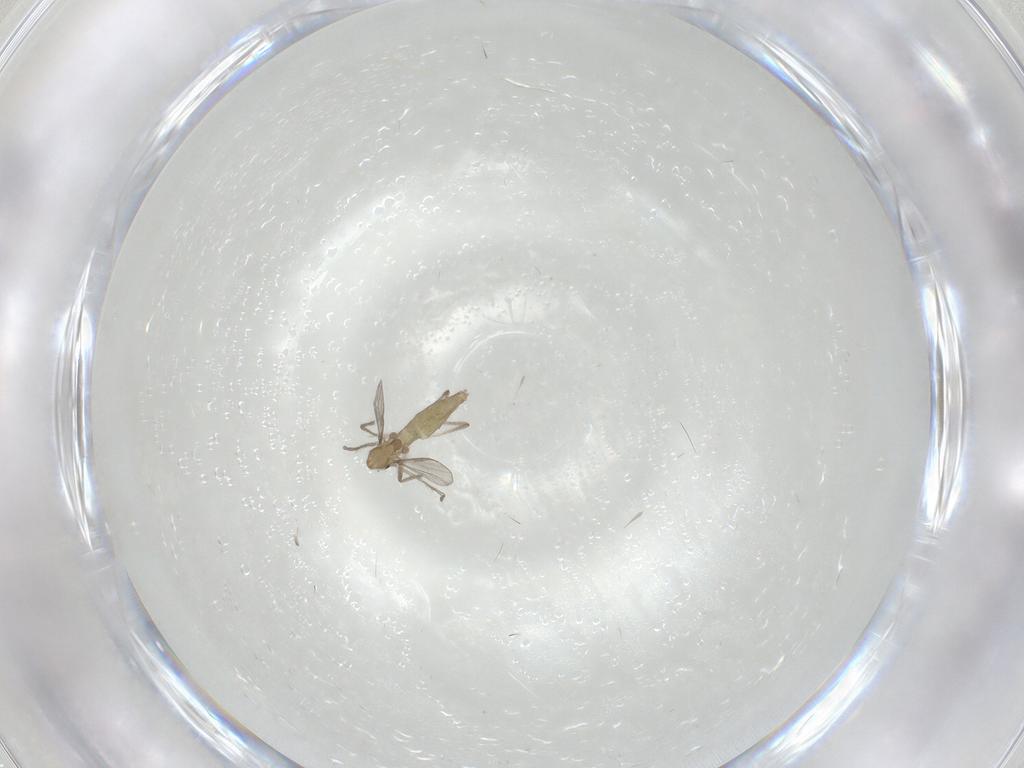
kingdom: Animalia
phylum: Arthropoda
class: Insecta
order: Diptera
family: Chironomidae
